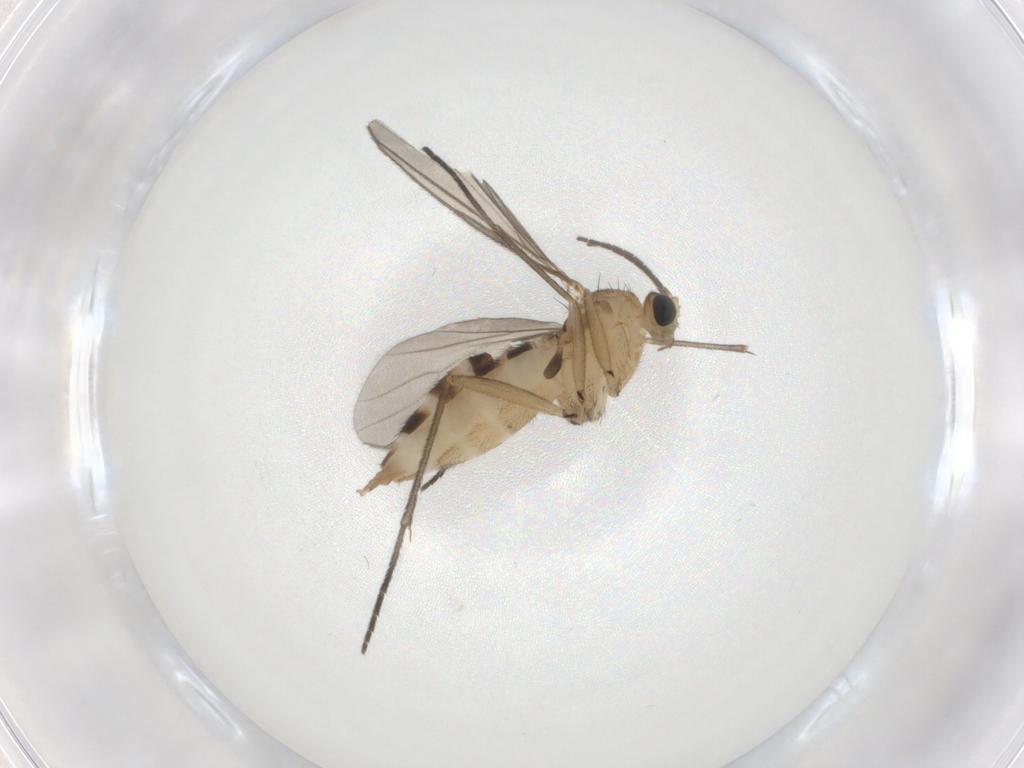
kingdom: Animalia
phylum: Arthropoda
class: Insecta
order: Diptera
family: Sciaridae
